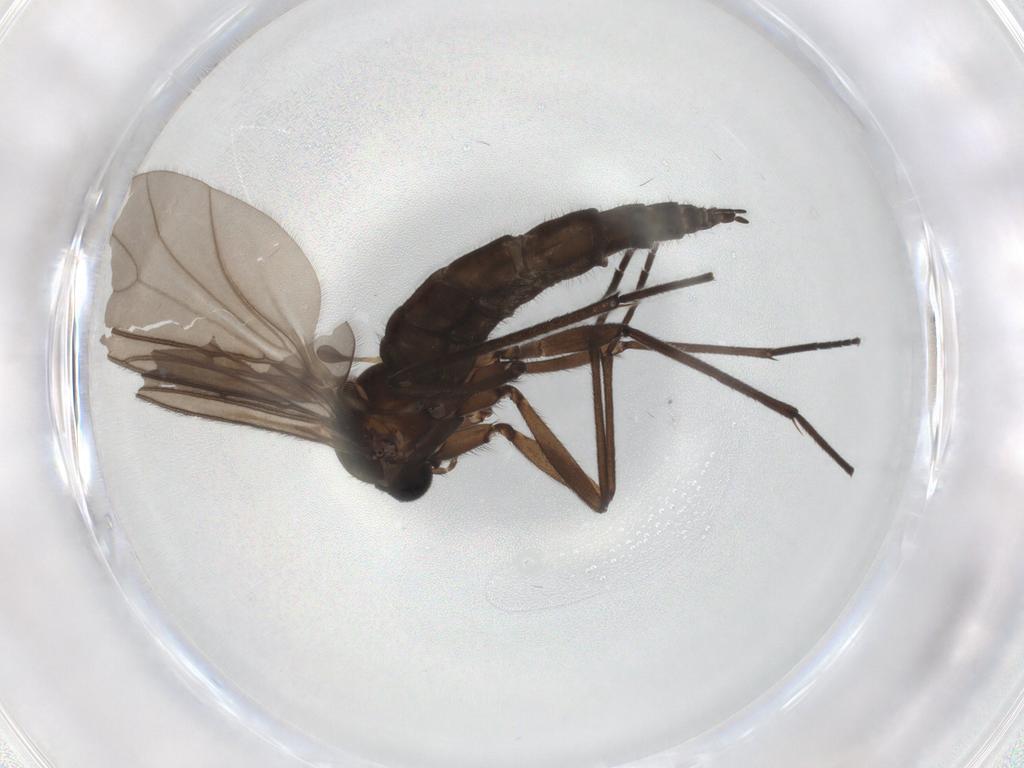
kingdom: Animalia
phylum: Arthropoda
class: Insecta
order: Diptera
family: Sciaridae
